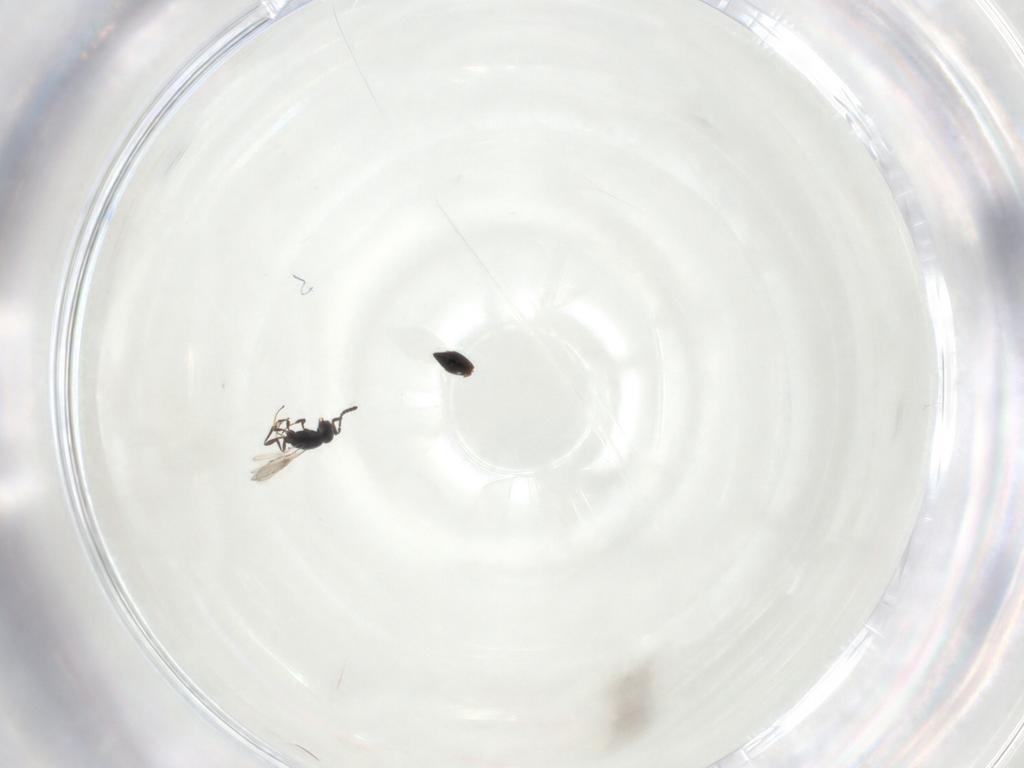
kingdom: Animalia
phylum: Arthropoda
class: Insecta
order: Hymenoptera
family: Scelionidae
